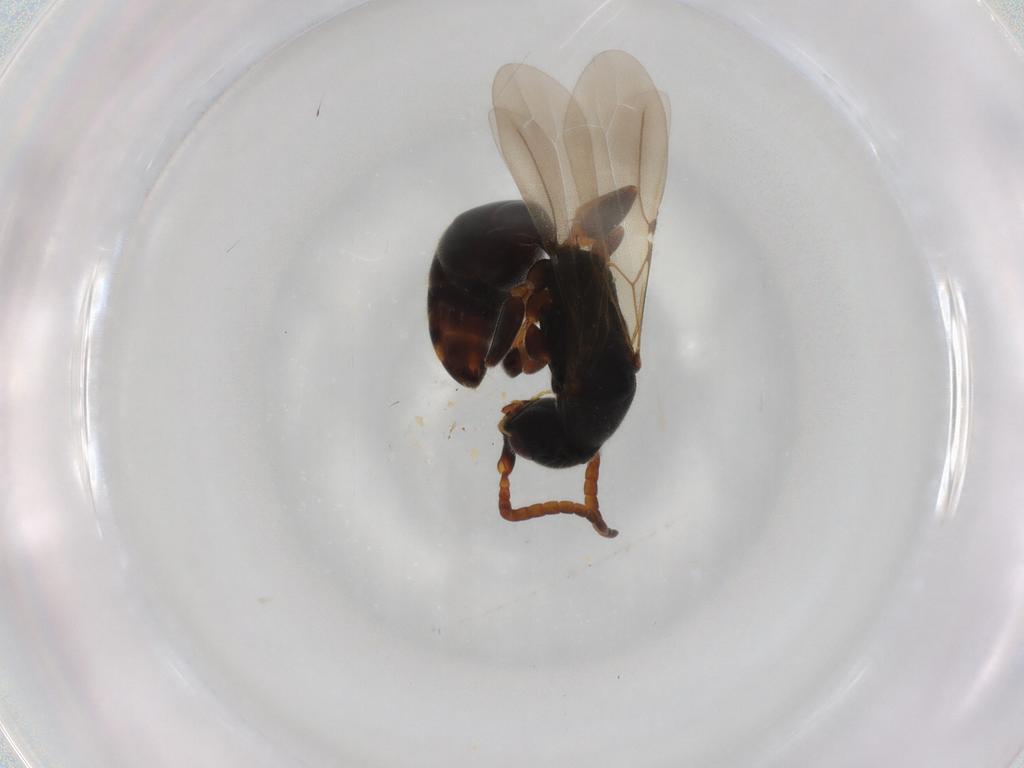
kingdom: Animalia
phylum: Arthropoda
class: Insecta
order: Hymenoptera
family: Bethylidae
